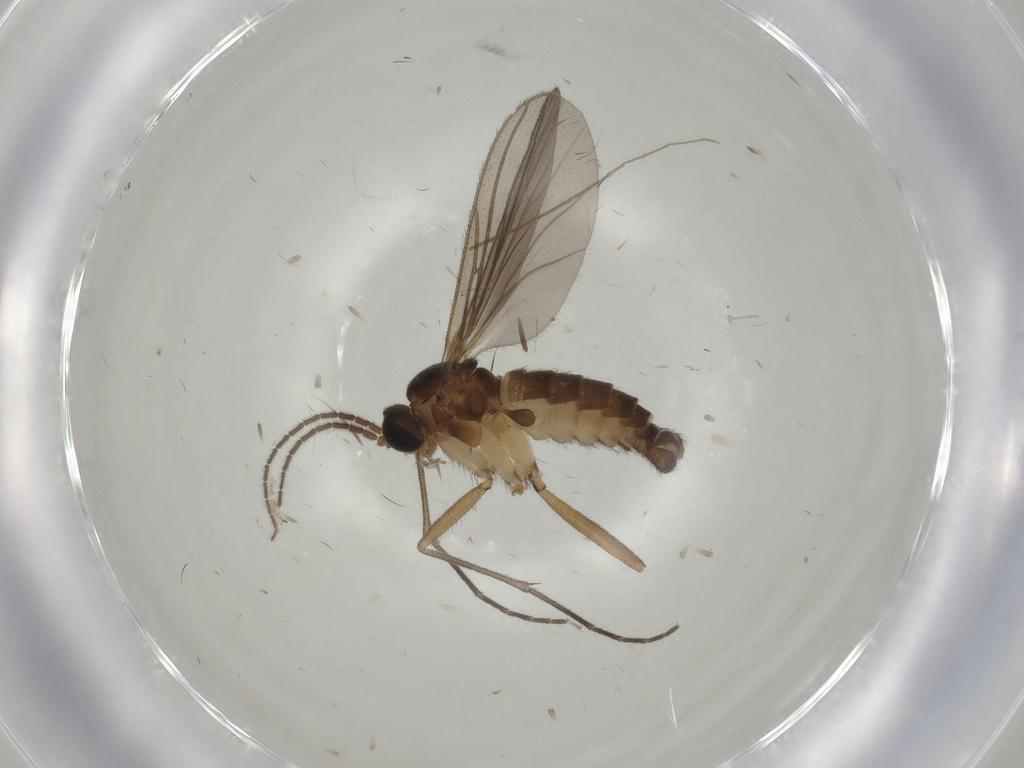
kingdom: Animalia
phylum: Arthropoda
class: Insecta
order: Diptera
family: Sciaridae
